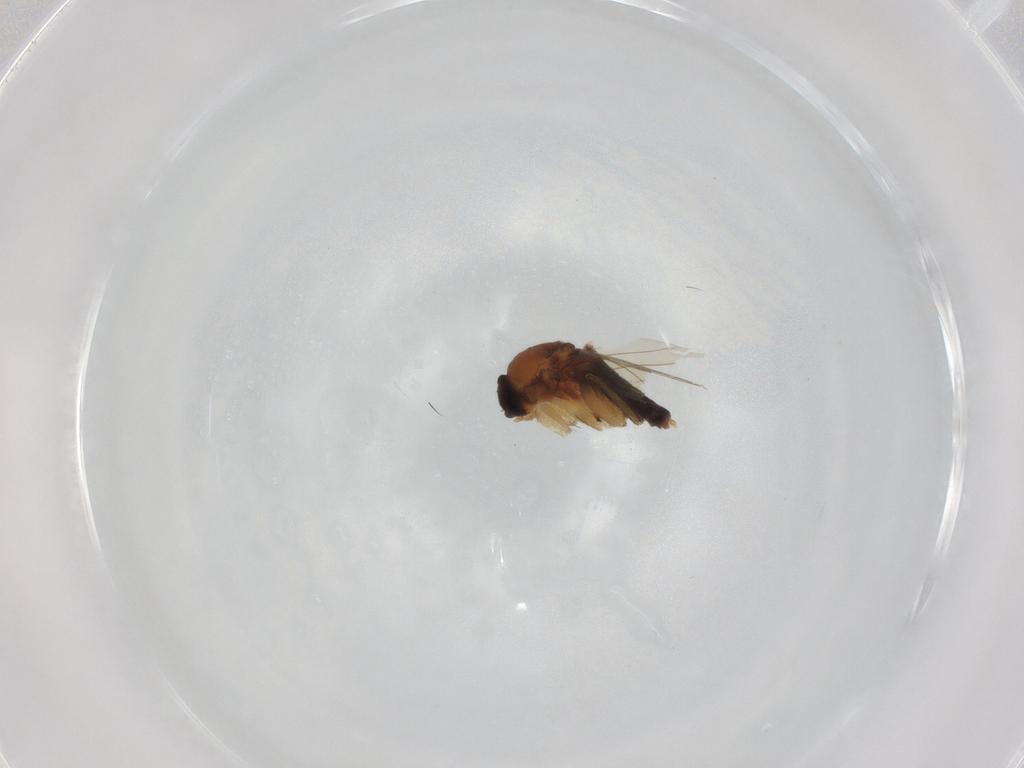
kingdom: Animalia
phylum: Arthropoda
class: Insecta
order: Diptera
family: Phoridae
